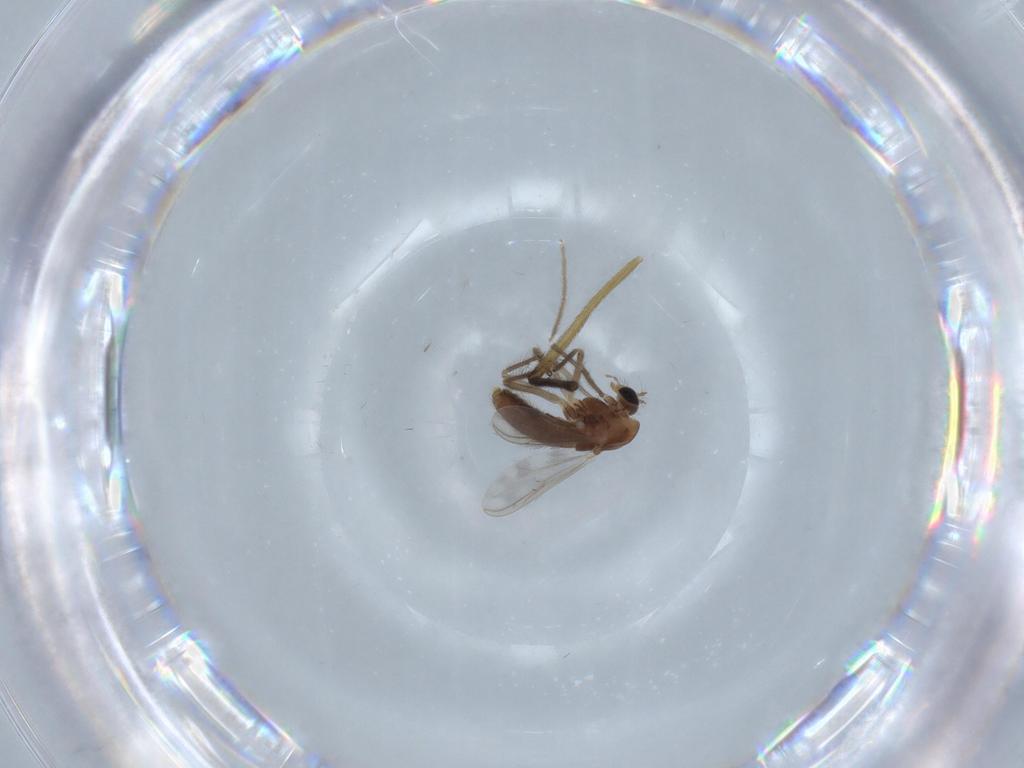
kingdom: Animalia
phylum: Arthropoda
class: Insecta
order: Diptera
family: Chironomidae
